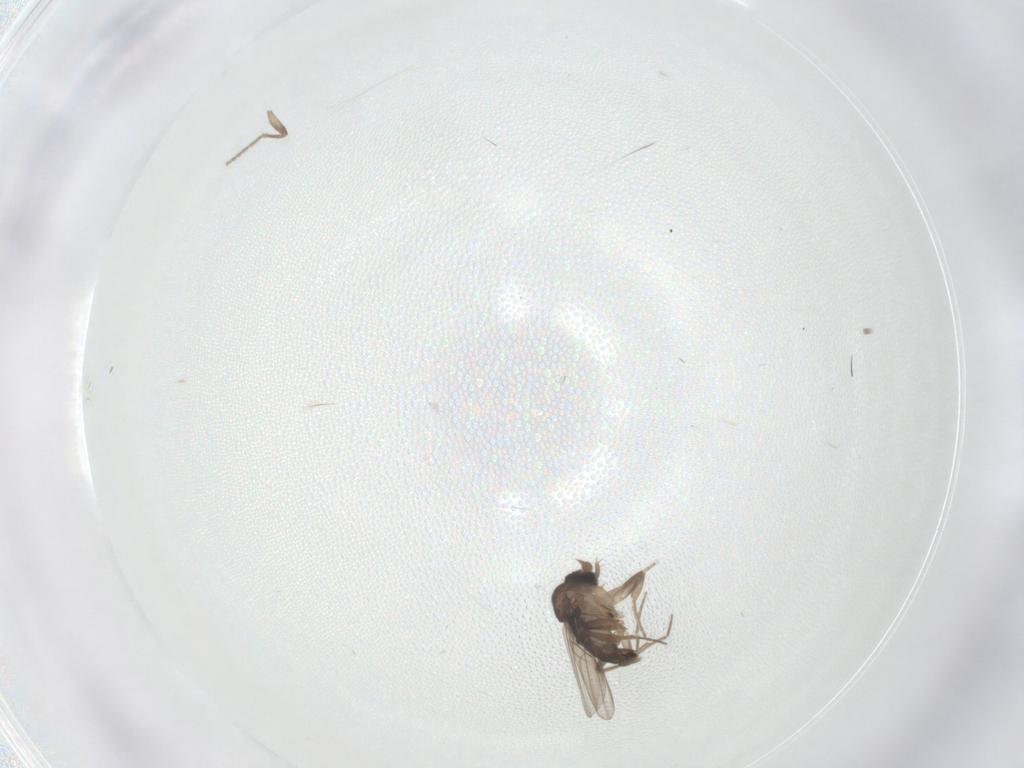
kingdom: Animalia
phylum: Arthropoda
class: Insecta
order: Diptera
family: Phoridae
